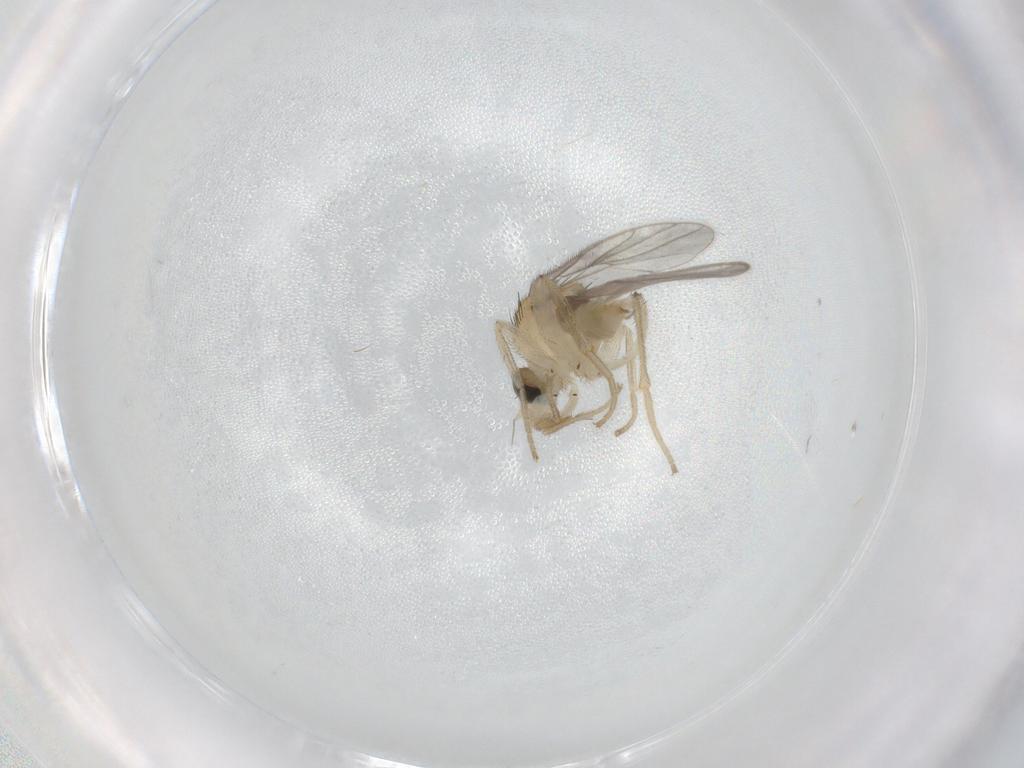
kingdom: Animalia
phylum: Arthropoda
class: Insecta
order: Diptera
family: Hybotidae
